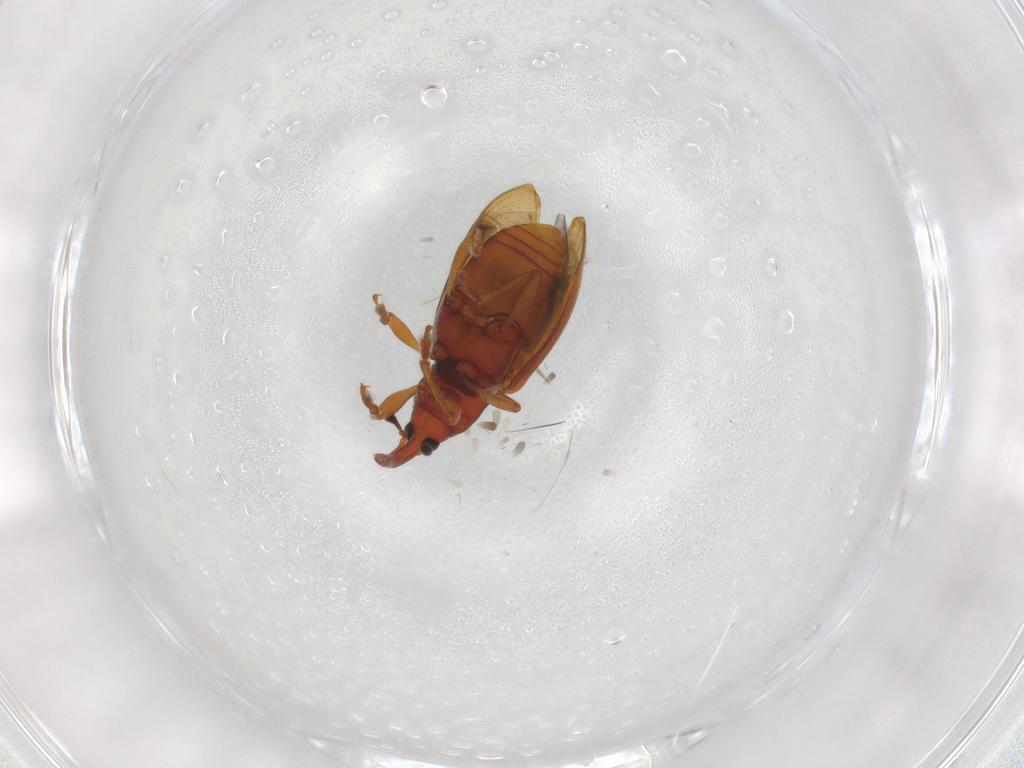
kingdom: Animalia
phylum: Arthropoda
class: Insecta
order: Coleoptera
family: Curculionidae
